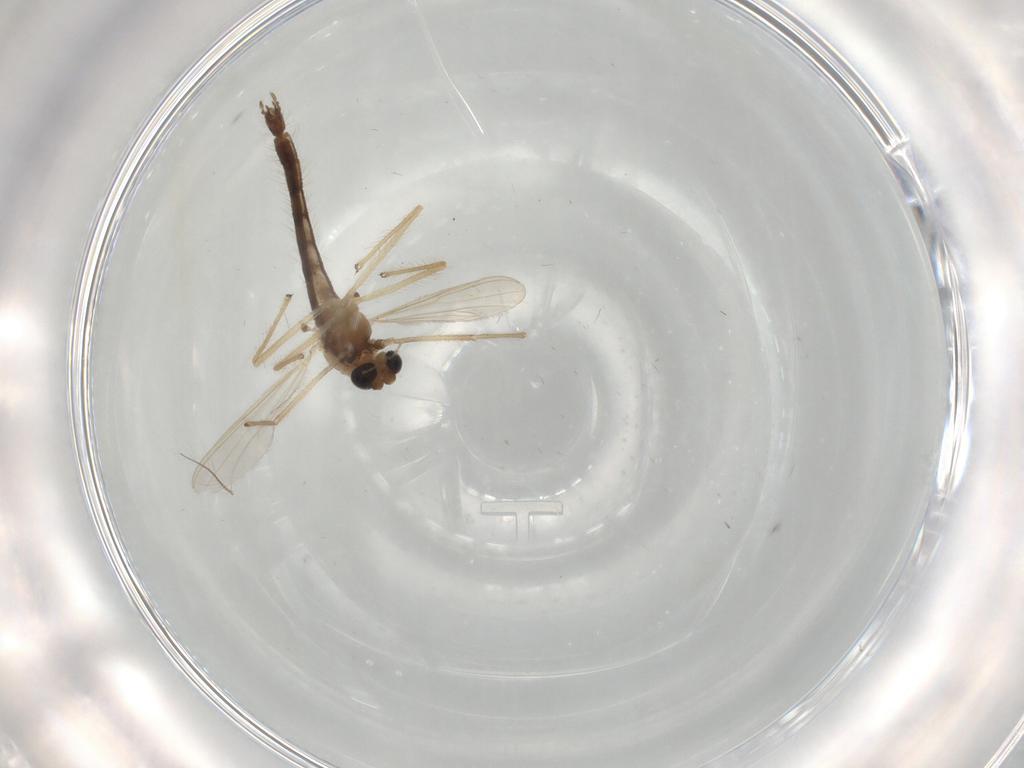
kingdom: Animalia
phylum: Arthropoda
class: Insecta
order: Diptera
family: Chironomidae
